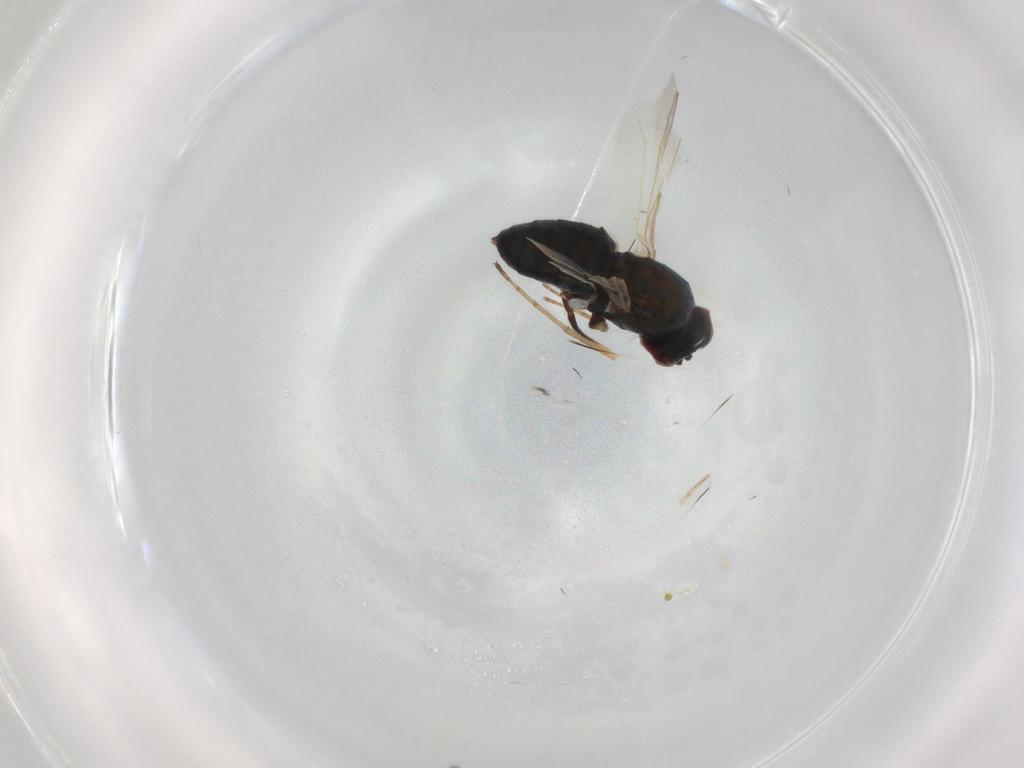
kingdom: Animalia
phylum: Arthropoda
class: Insecta
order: Diptera
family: Dolichopodidae
